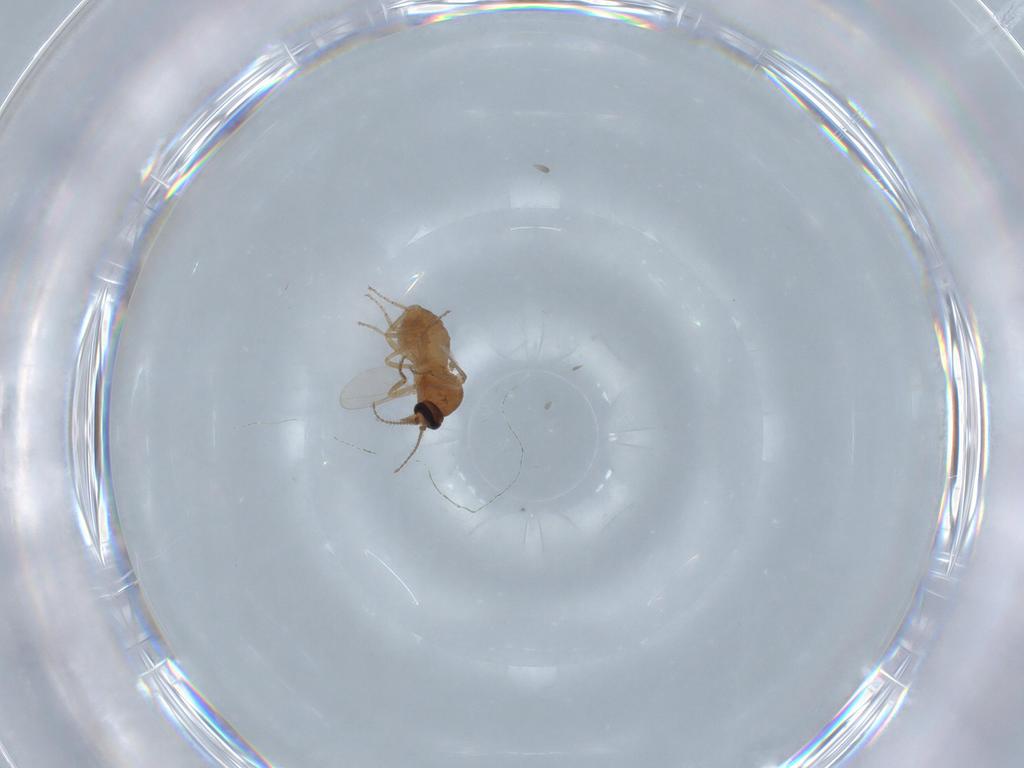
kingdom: Animalia
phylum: Arthropoda
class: Insecta
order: Diptera
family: Ceratopogonidae
